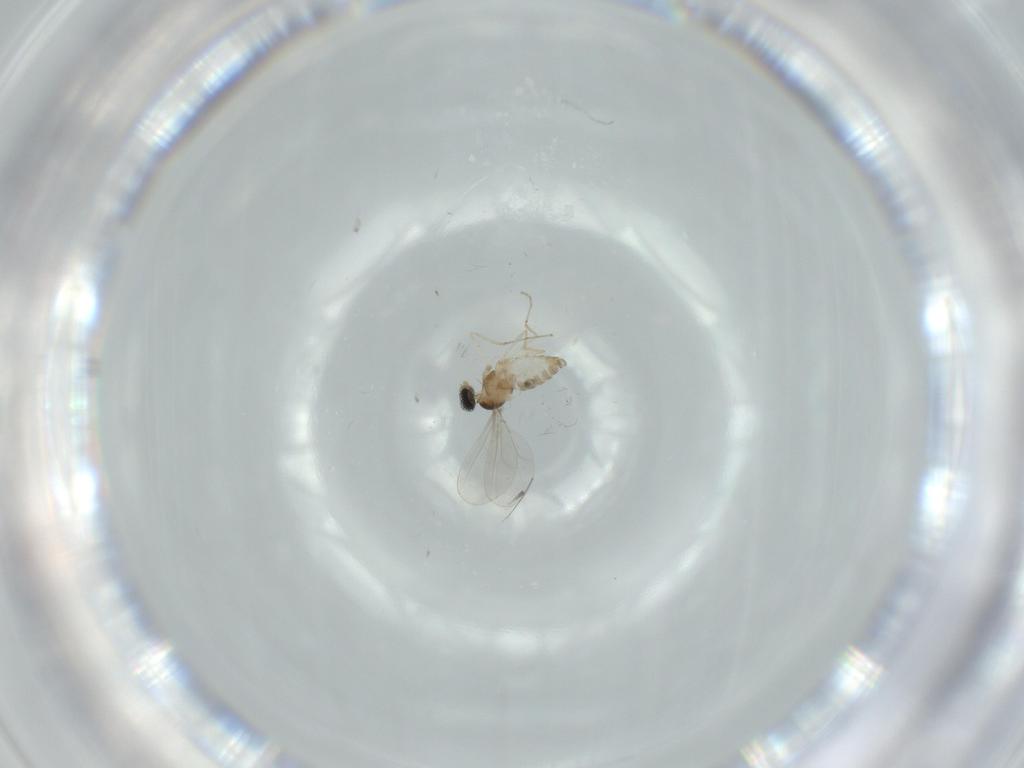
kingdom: Animalia
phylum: Arthropoda
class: Insecta
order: Diptera
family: Cecidomyiidae
